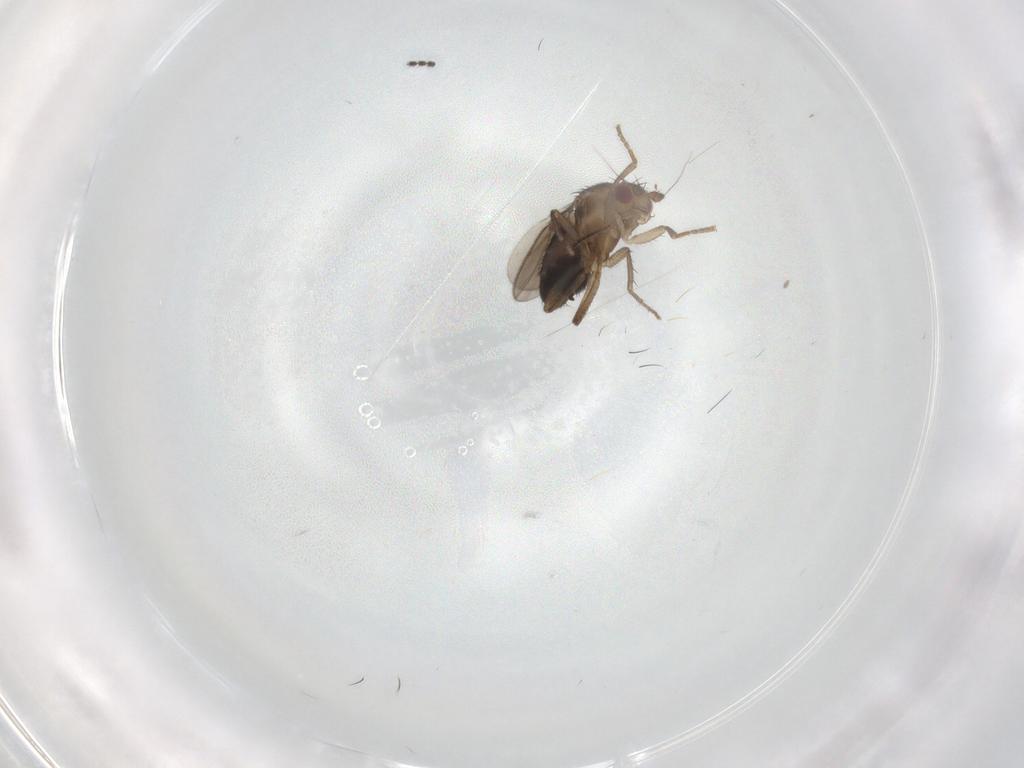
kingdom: Animalia
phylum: Arthropoda
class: Insecta
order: Diptera
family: Sphaeroceridae
